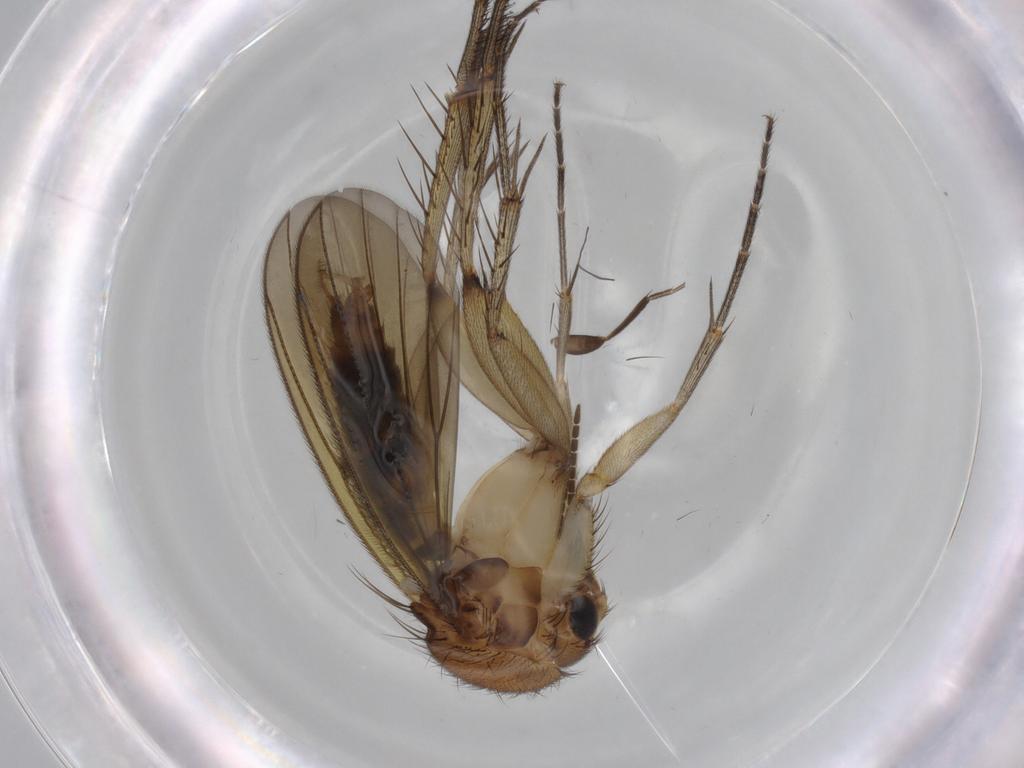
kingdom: Animalia
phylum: Arthropoda
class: Insecta
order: Diptera
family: Mycetophilidae
